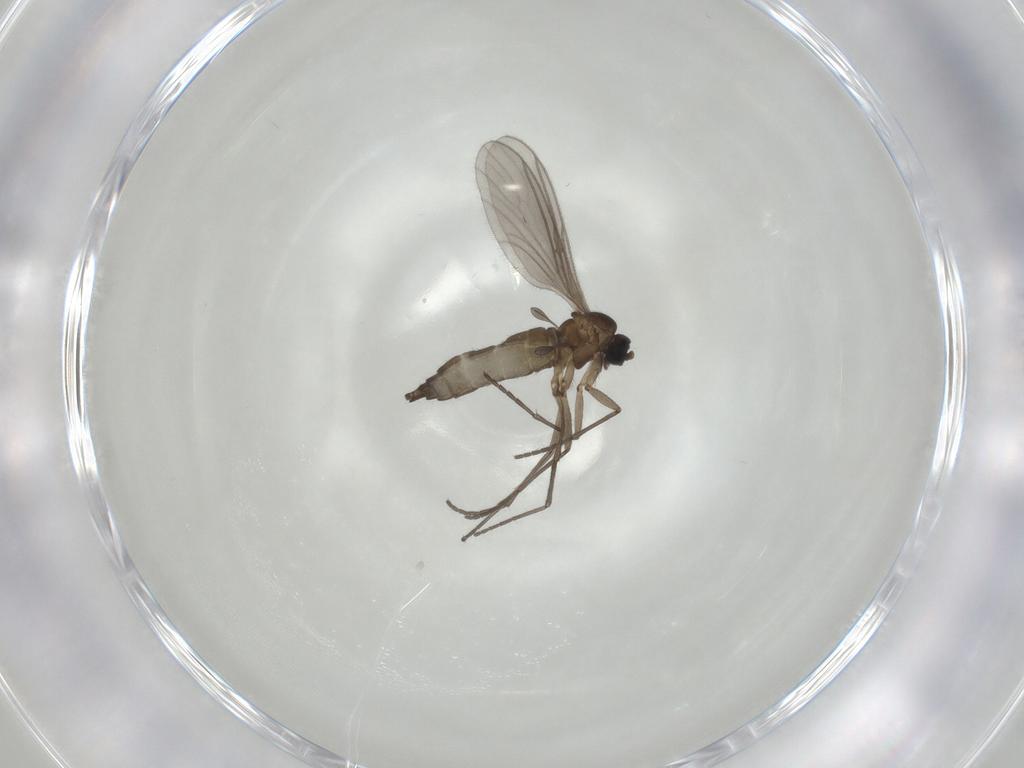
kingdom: Animalia
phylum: Arthropoda
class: Insecta
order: Diptera
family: Sciaridae
